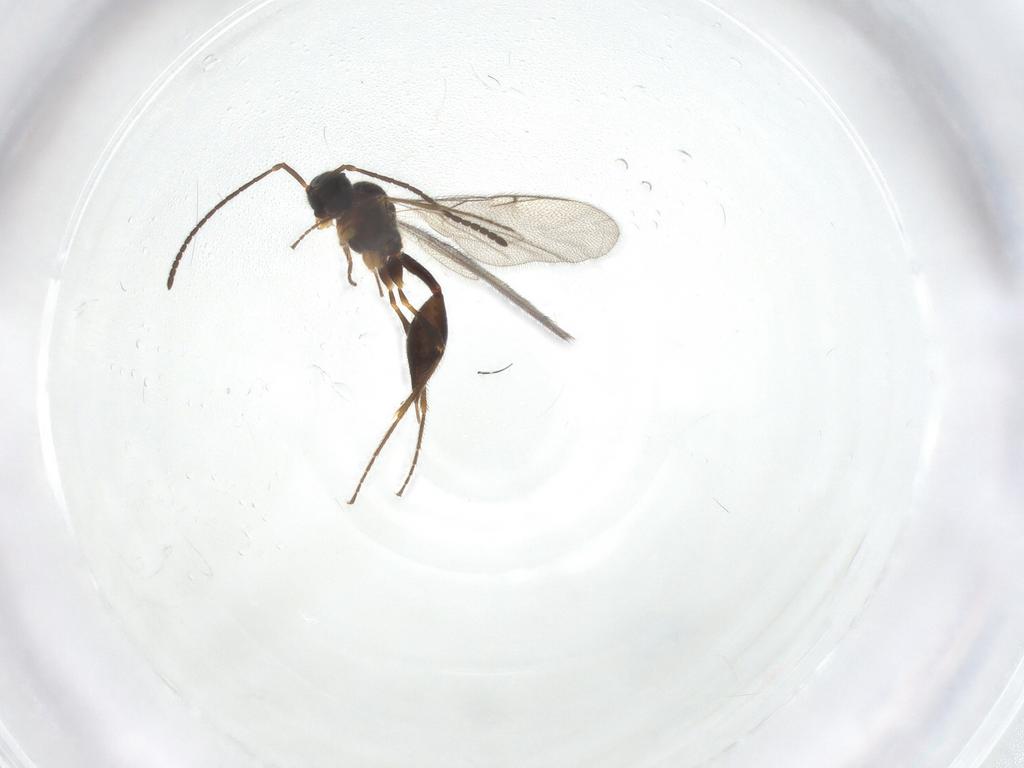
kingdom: Animalia
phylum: Arthropoda
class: Insecta
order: Hymenoptera
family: Diapriidae
